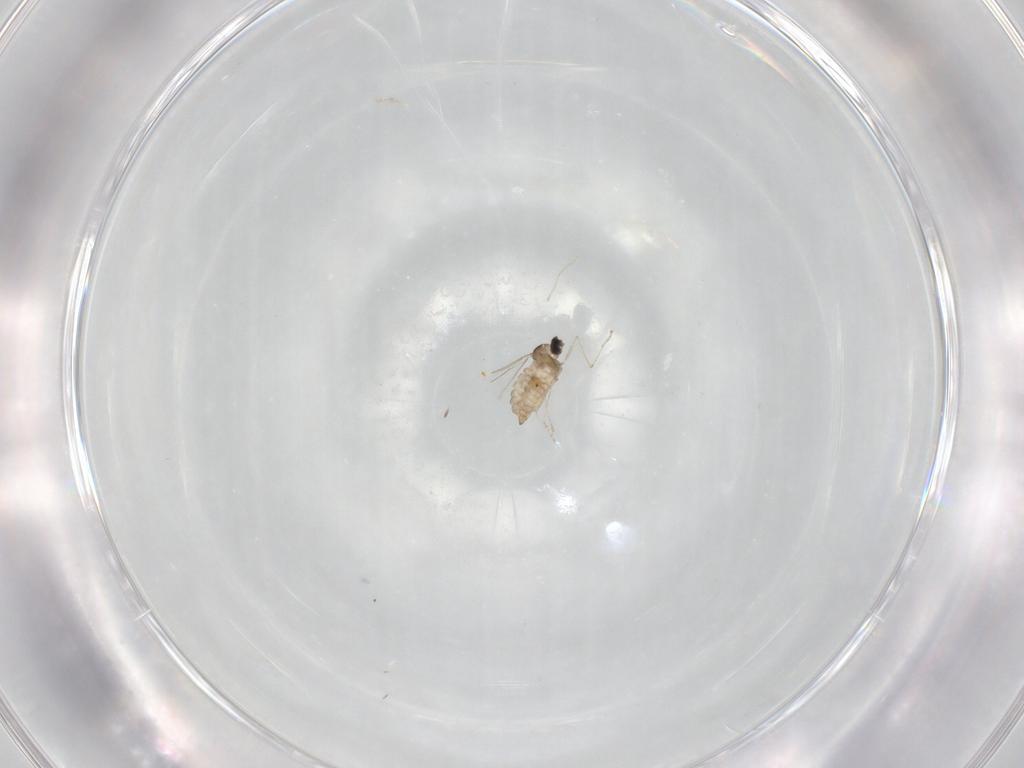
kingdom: Animalia
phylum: Arthropoda
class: Insecta
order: Diptera
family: Cecidomyiidae
